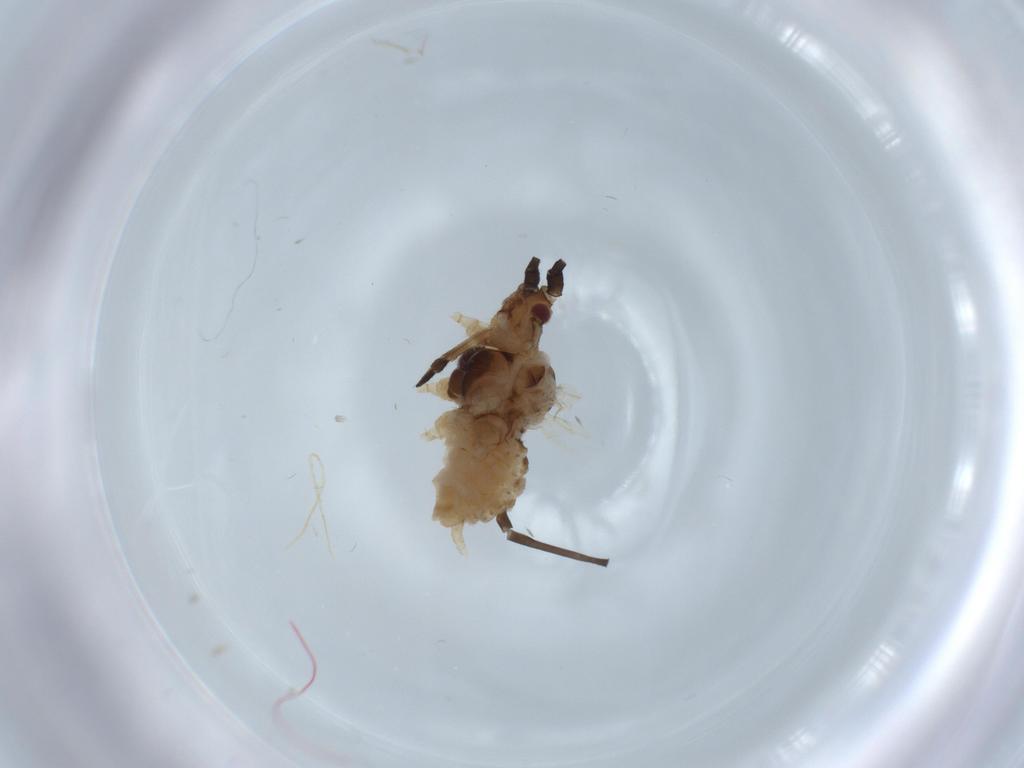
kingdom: Animalia
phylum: Arthropoda
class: Insecta
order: Hemiptera
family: Aphididae
